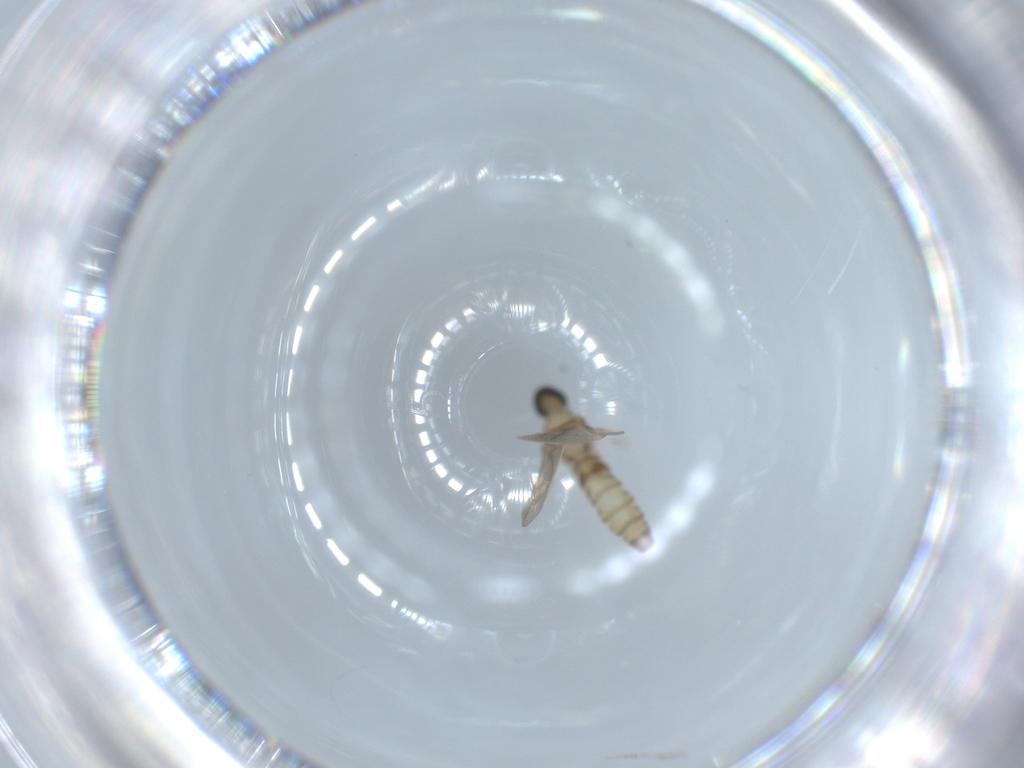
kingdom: Animalia
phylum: Arthropoda
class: Insecta
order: Diptera
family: Cecidomyiidae
